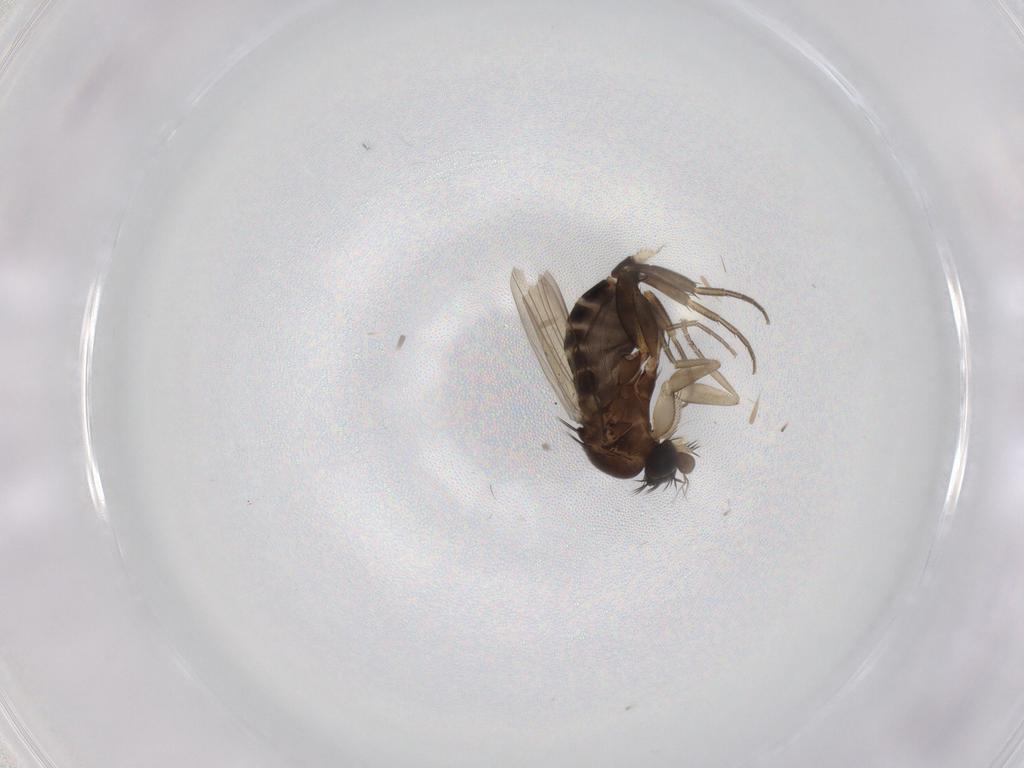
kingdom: Animalia
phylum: Arthropoda
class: Insecta
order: Diptera
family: Phoridae
